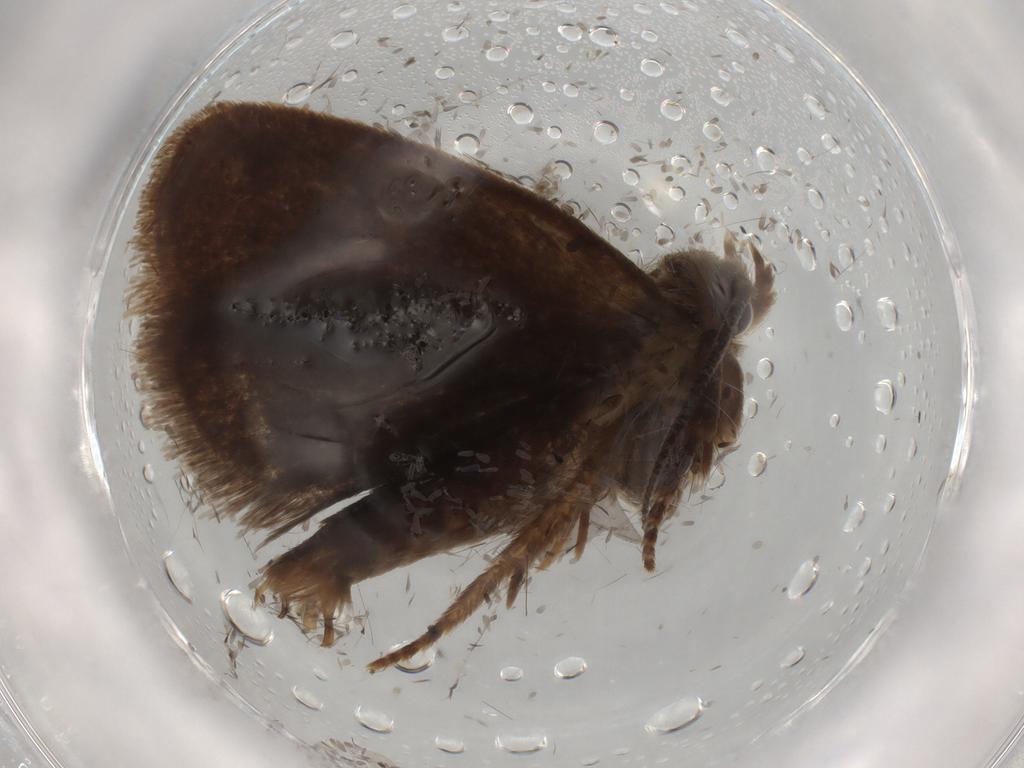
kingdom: Animalia
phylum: Arthropoda
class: Insecta
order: Lepidoptera
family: Tineidae
